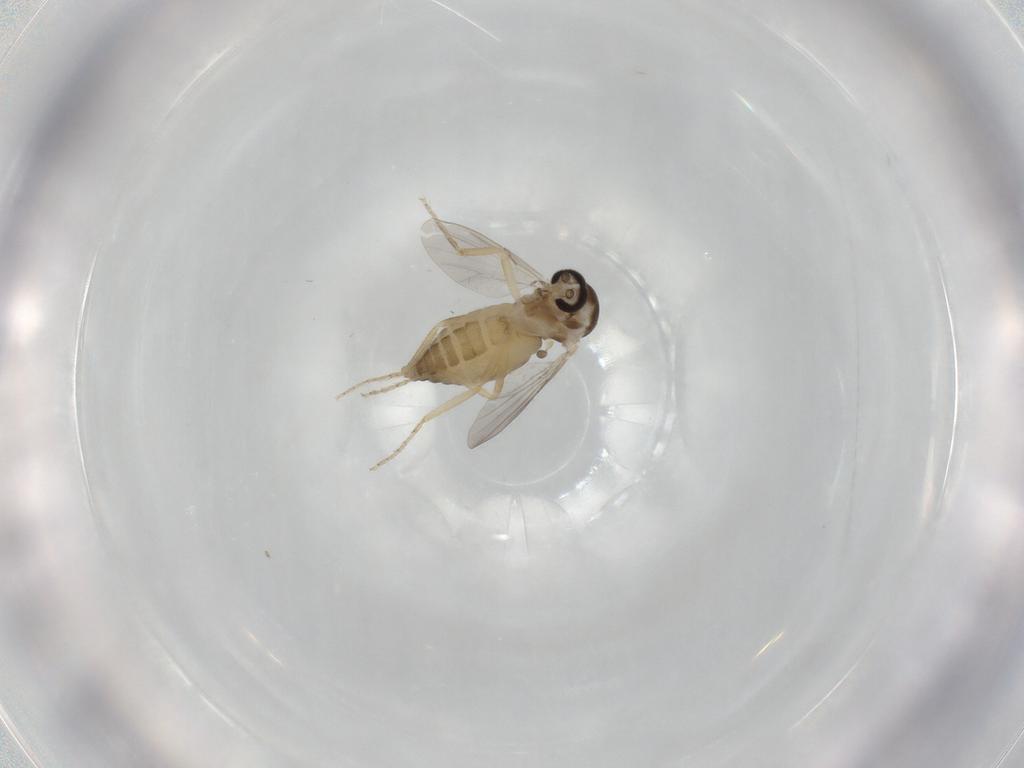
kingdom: Animalia
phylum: Arthropoda
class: Insecta
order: Diptera
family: Ceratopogonidae
